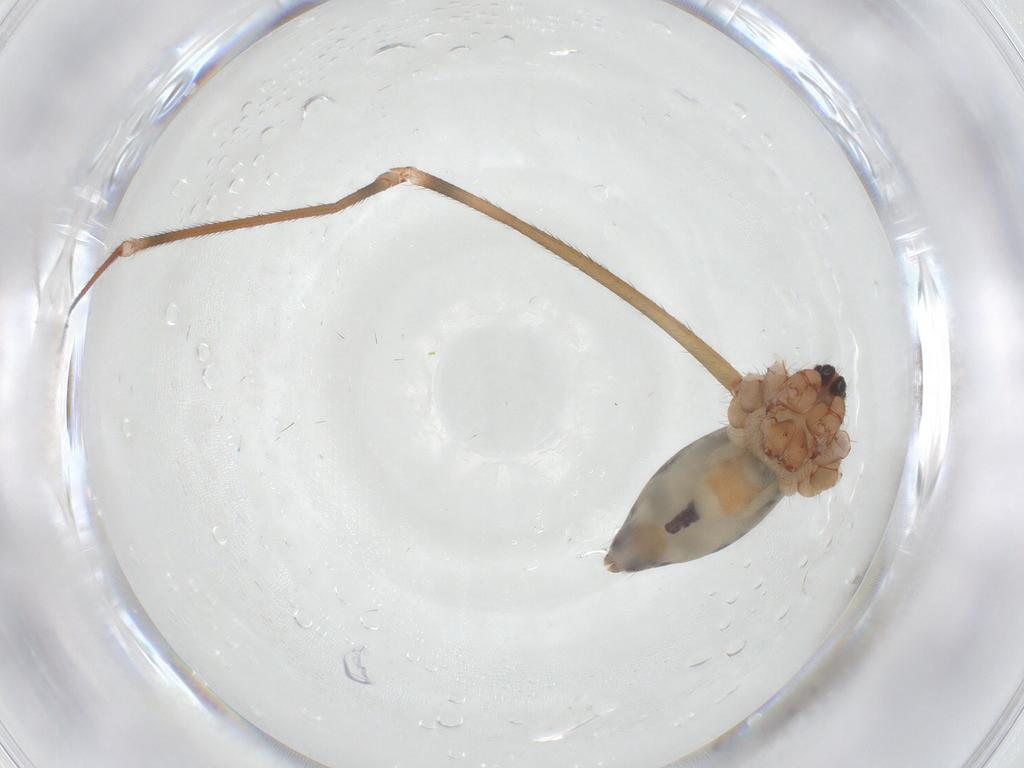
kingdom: Animalia
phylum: Arthropoda
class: Arachnida
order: Araneae
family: Pholcidae
